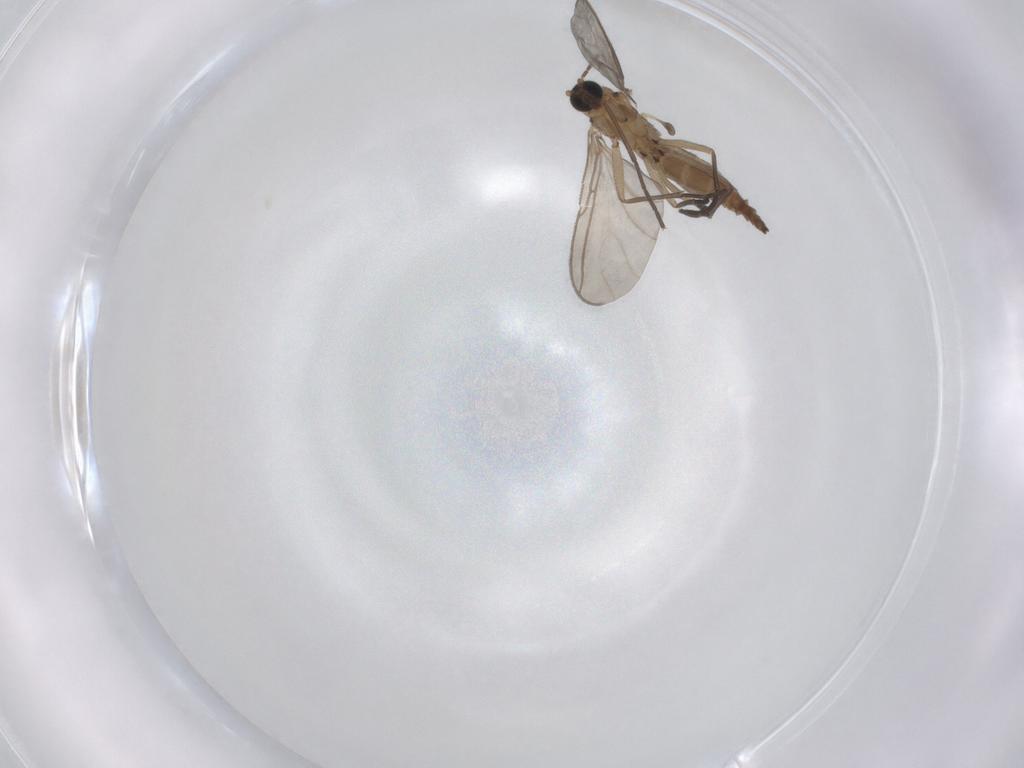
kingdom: Animalia
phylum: Arthropoda
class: Insecta
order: Diptera
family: Sciaridae
